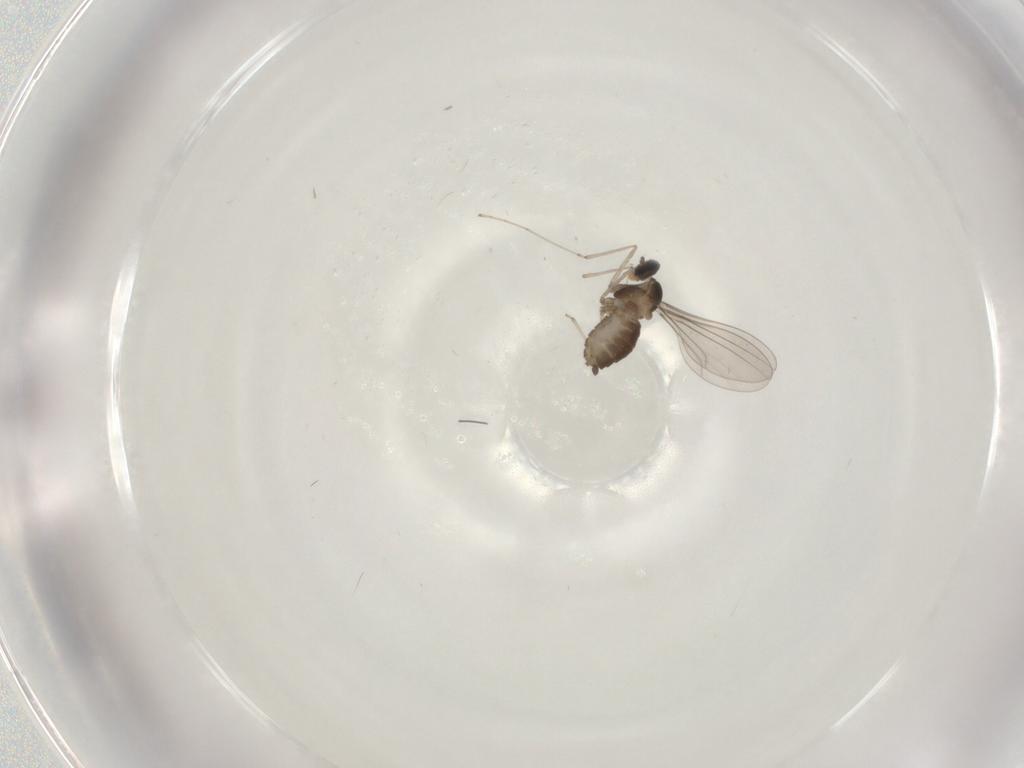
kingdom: Animalia
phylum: Arthropoda
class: Insecta
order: Diptera
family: Cecidomyiidae
